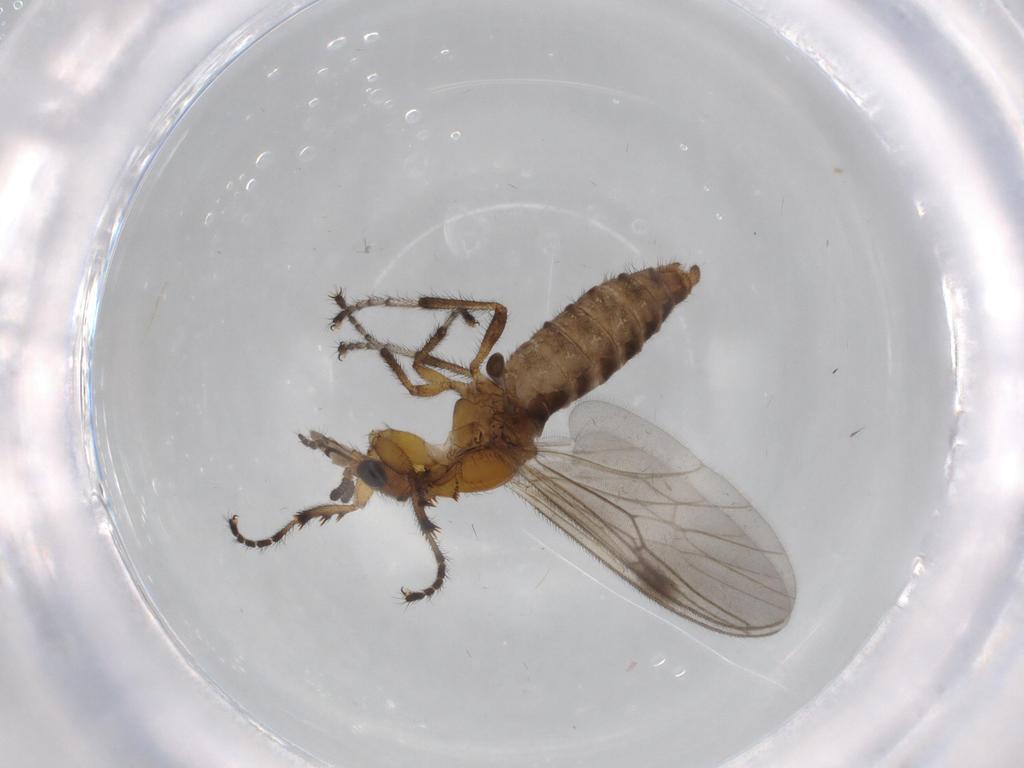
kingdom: Animalia
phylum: Arthropoda
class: Insecta
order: Diptera
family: Bibionidae
